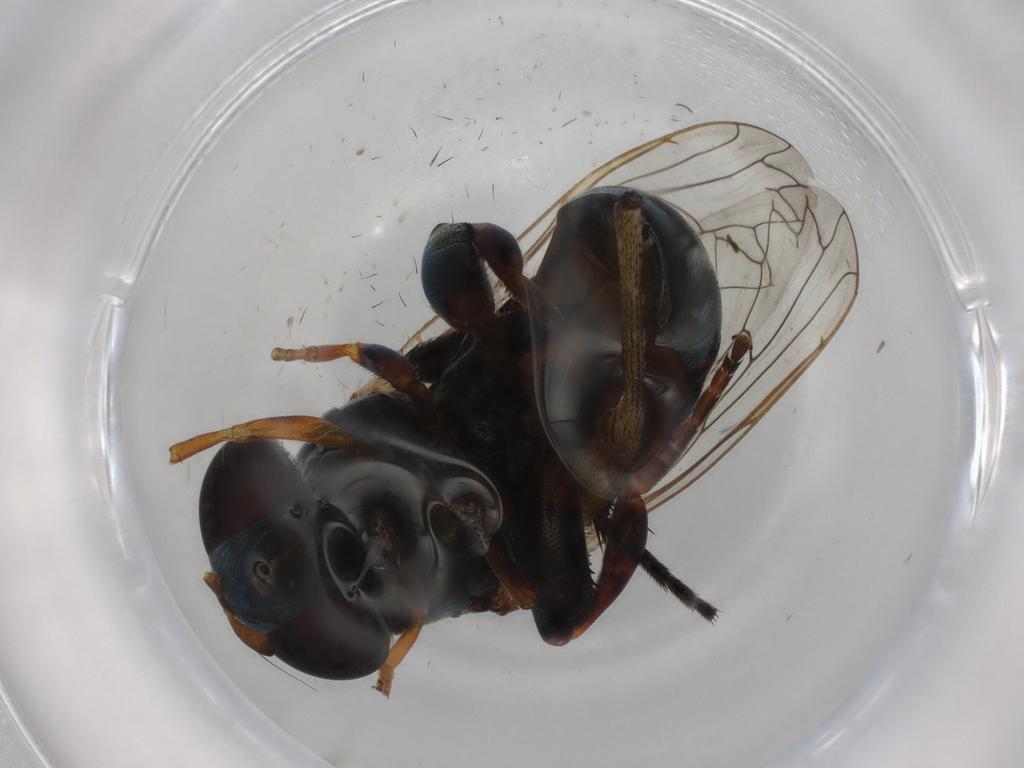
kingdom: Animalia
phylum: Arthropoda
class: Insecta
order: Diptera
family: Syrphidae
